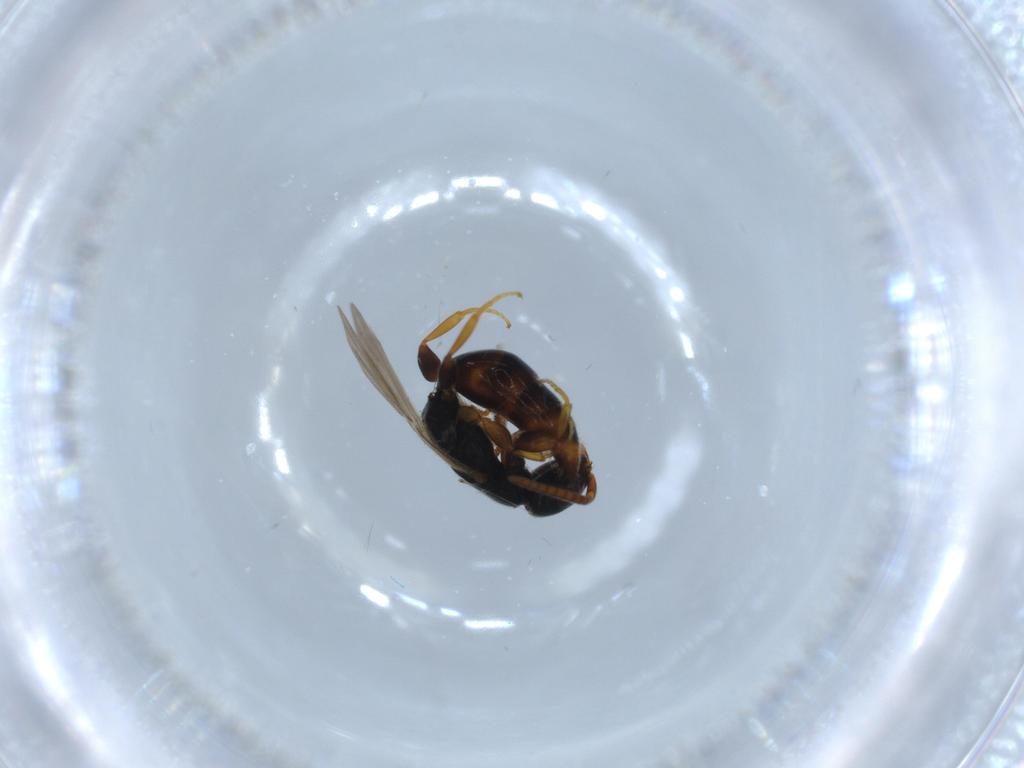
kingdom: Animalia
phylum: Arthropoda
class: Insecta
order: Hymenoptera
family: Bethylidae
